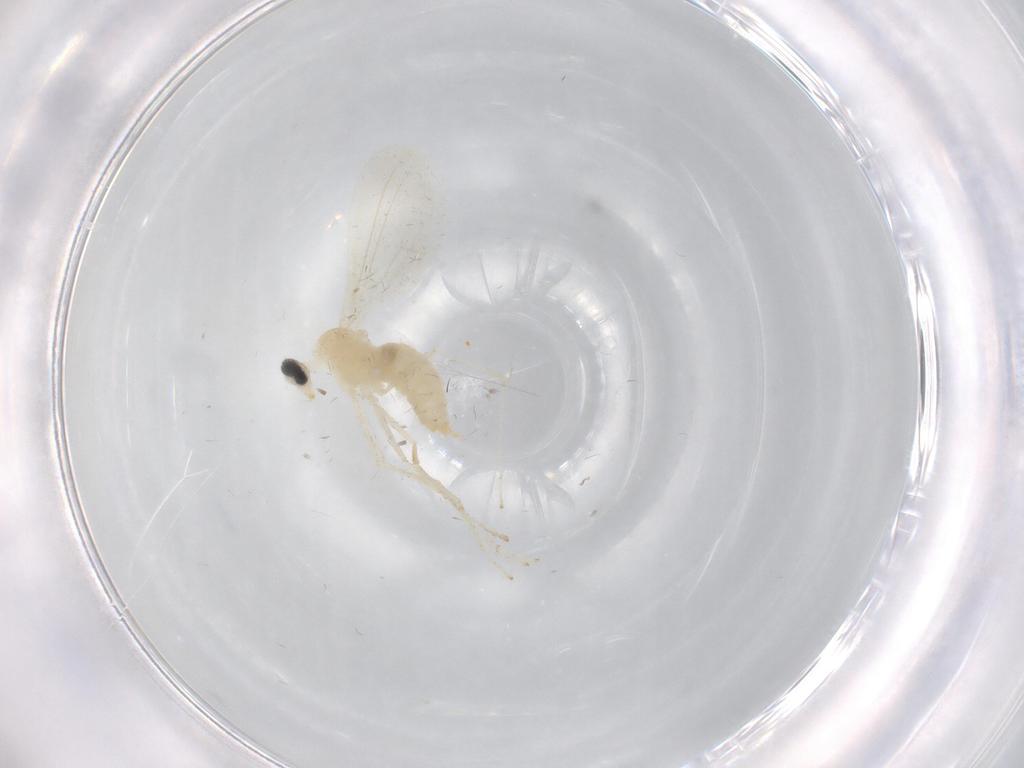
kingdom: Animalia
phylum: Arthropoda
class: Insecta
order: Diptera
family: Cecidomyiidae
